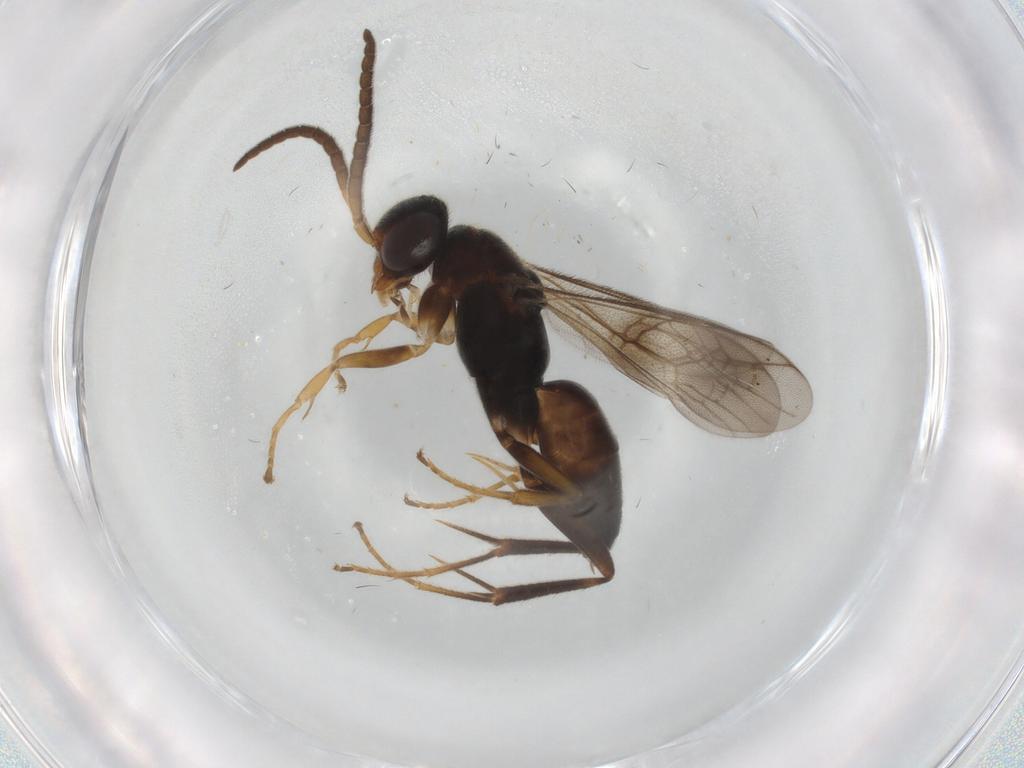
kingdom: Animalia
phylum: Arthropoda
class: Insecta
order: Hymenoptera
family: Pompilidae
